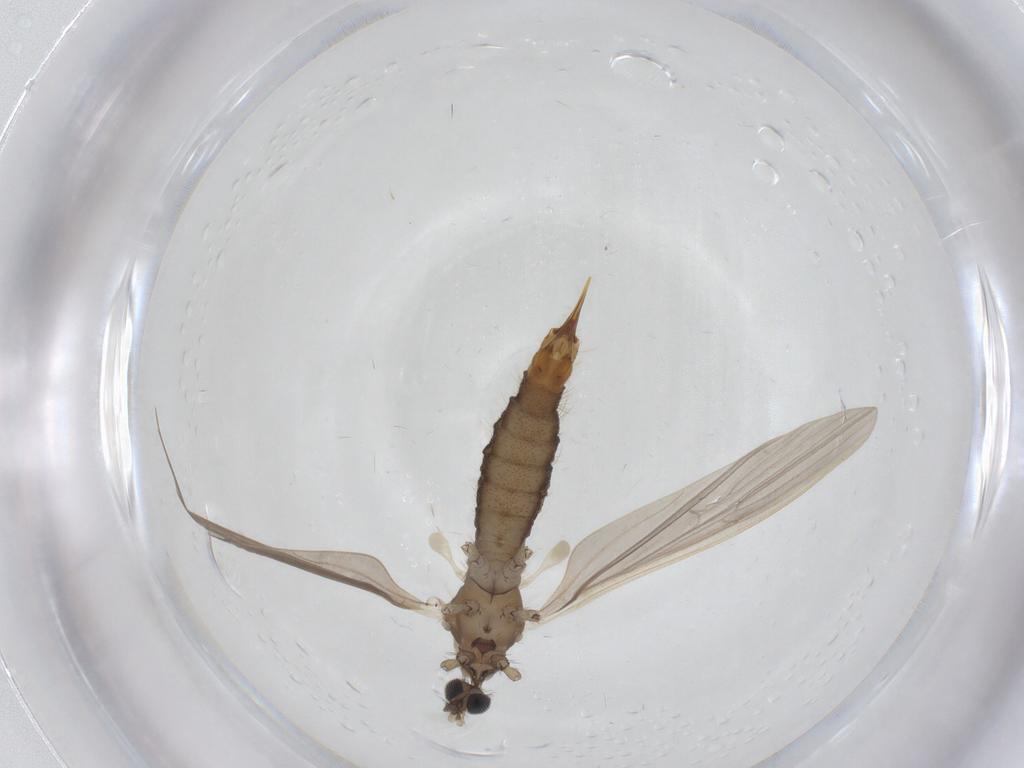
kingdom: Animalia
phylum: Arthropoda
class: Insecta
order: Diptera
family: Limoniidae
